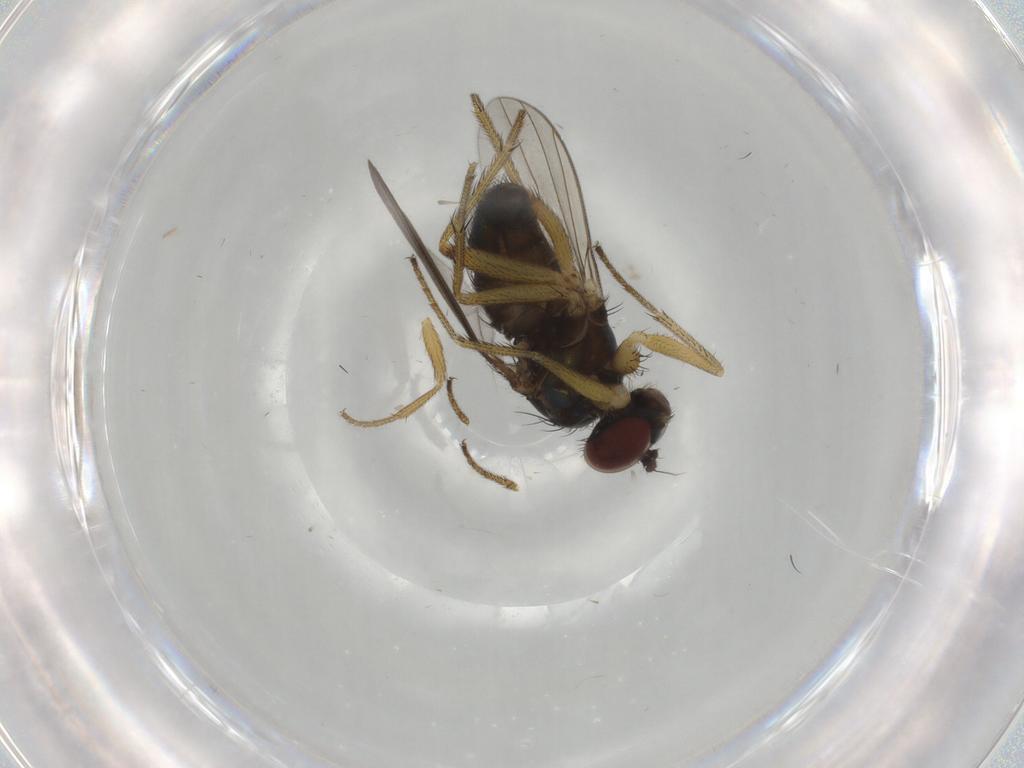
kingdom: Animalia
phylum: Arthropoda
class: Insecta
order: Diptera
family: Dolichopodidae
